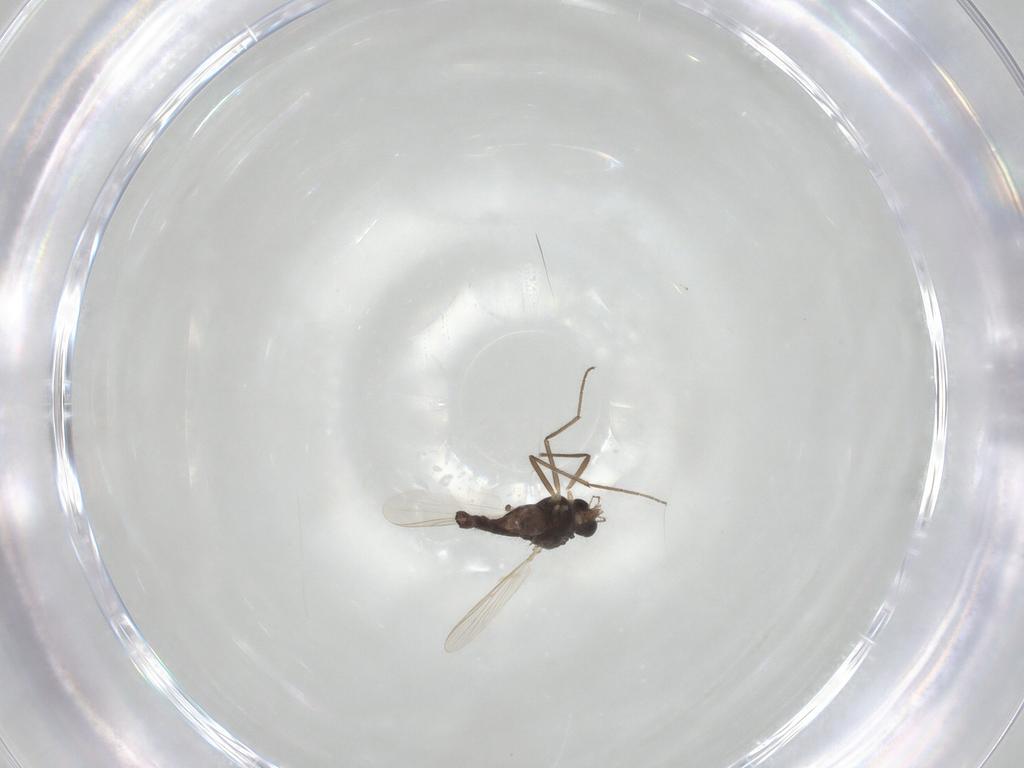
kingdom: Animalia
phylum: Arthropoda
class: Insecta
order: Diptera
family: Chironomidae
